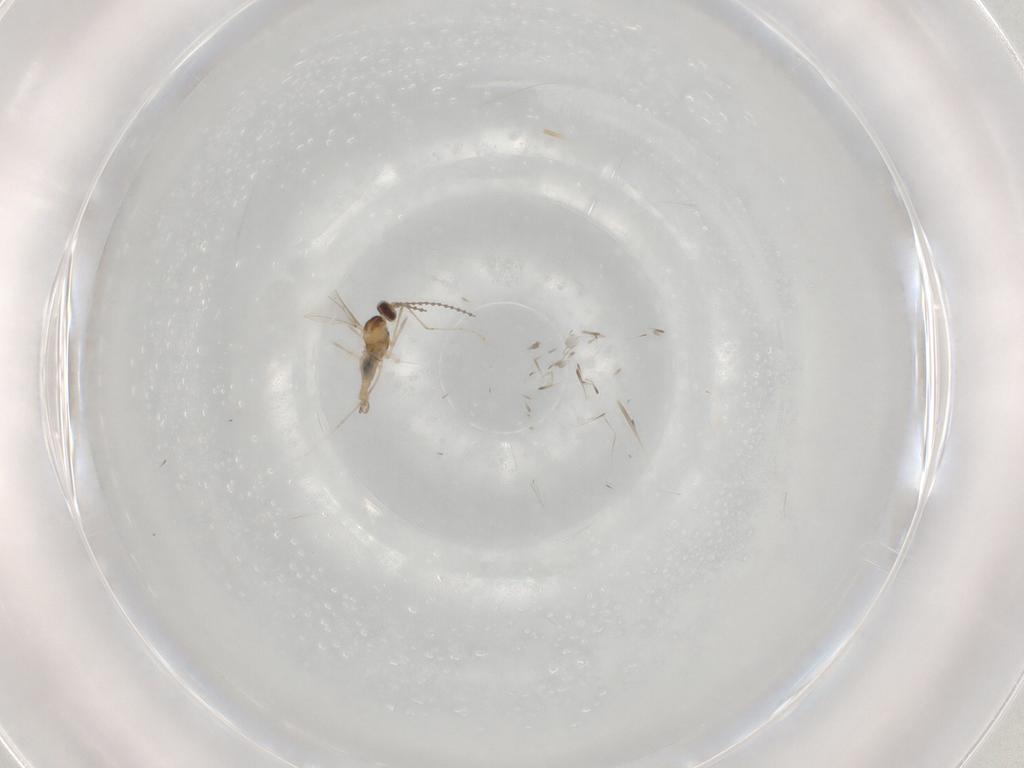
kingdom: Animalia
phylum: Arthropoda
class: Insecta
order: Diptera
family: Cecidomyiidae
